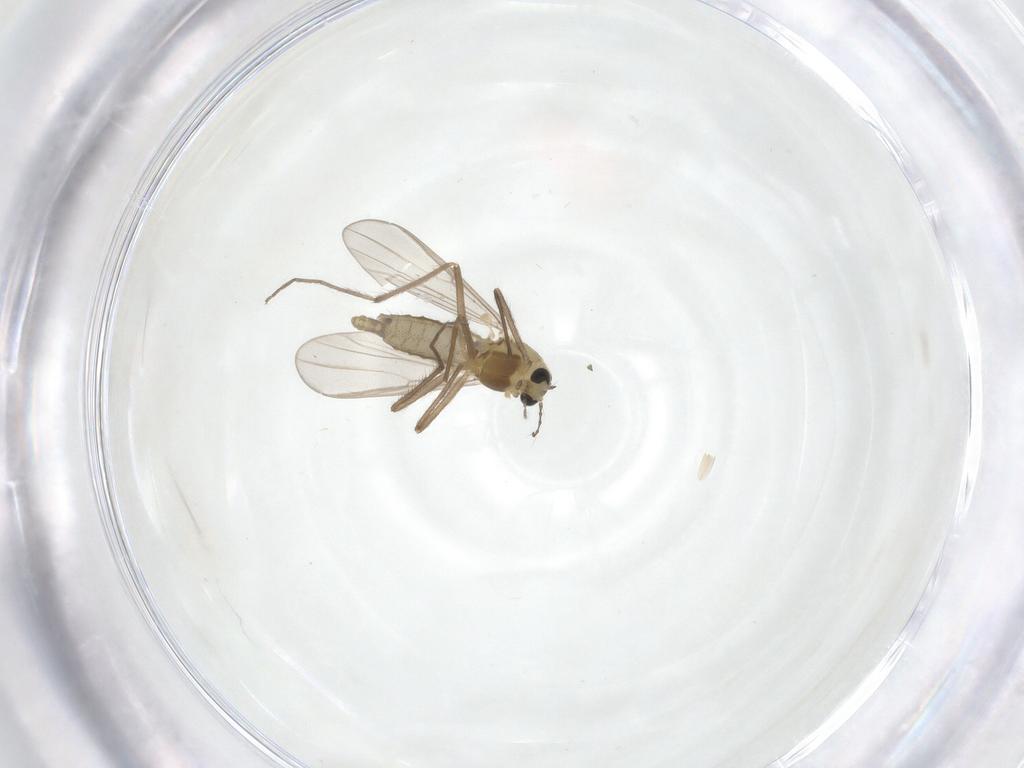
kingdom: Animalia
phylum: Arthropoda
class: Insecta
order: Diptera
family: Chironomidae
